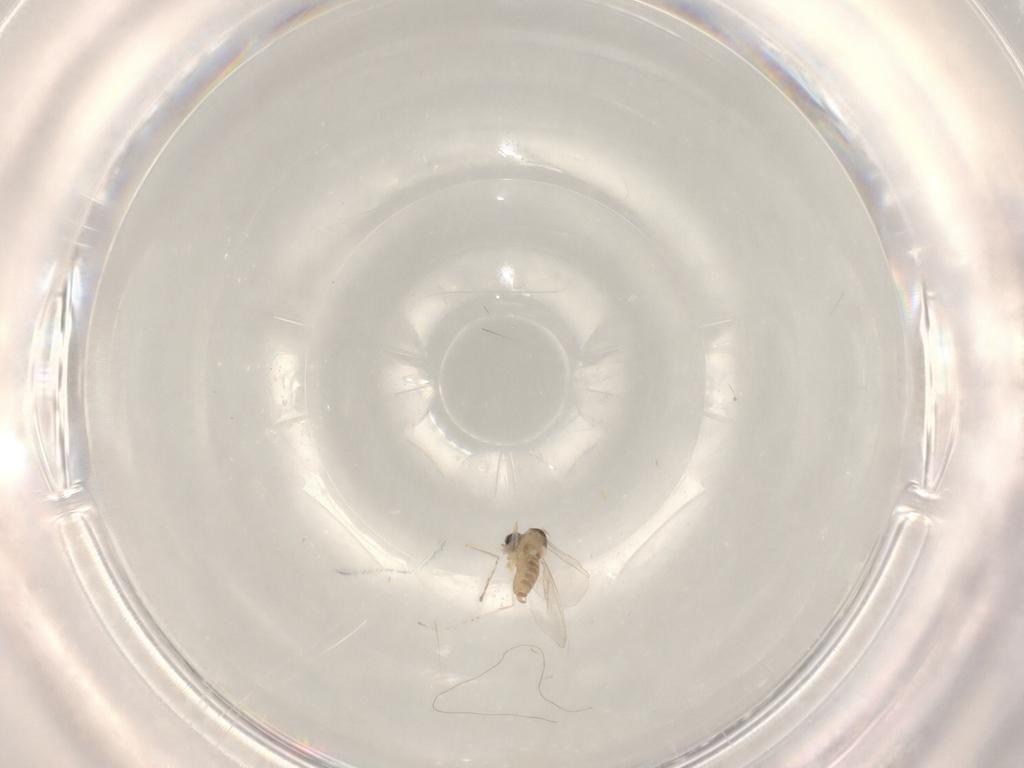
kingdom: Animalia
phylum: Arthropoda
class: Insecta
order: Diptera
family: Cecidomyiidae
